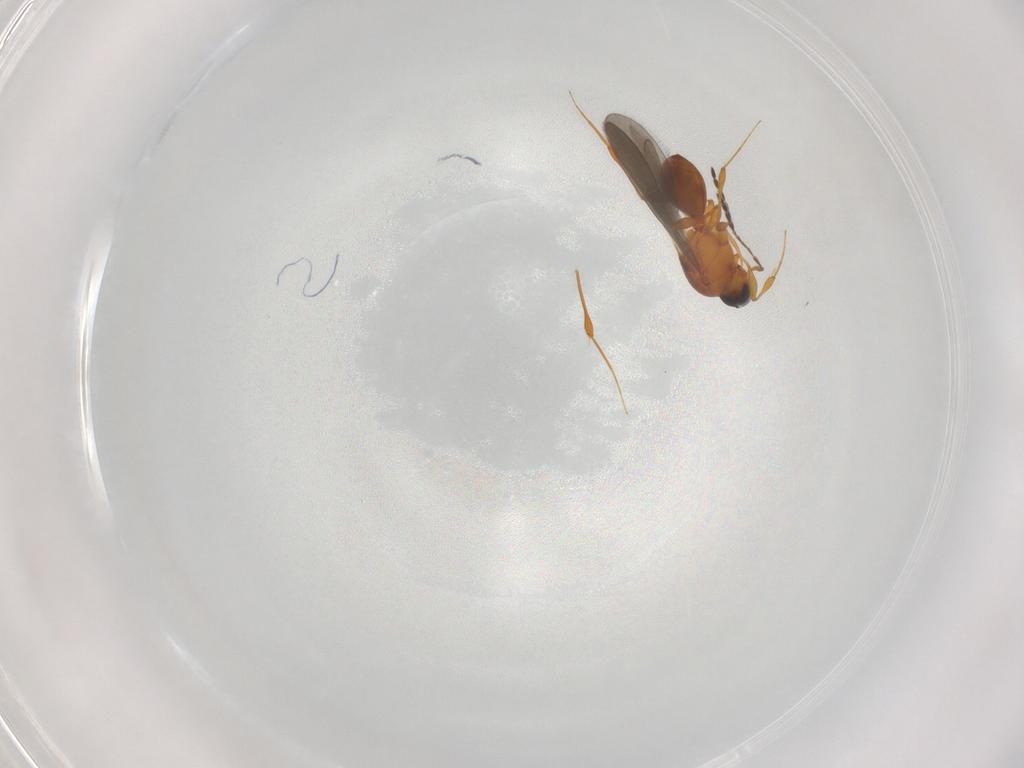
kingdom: Animalia
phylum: Arthropoda
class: Insecta
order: Hymenoptera
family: Platygastridae
